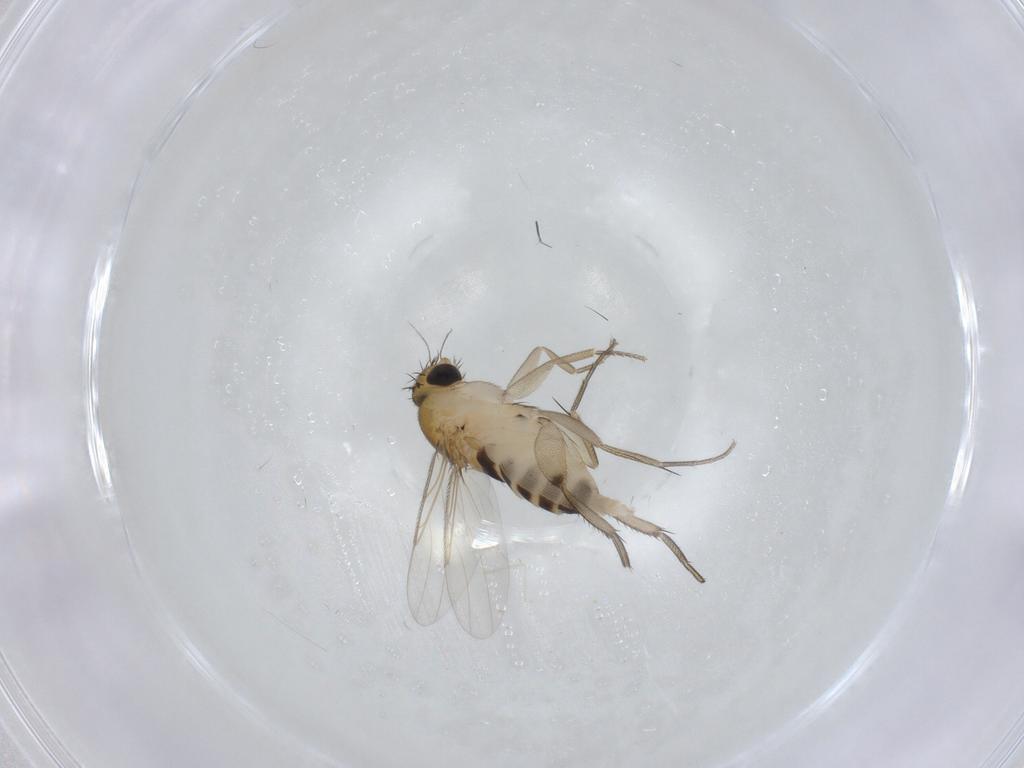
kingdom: Animalia
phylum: Arthropoda
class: Insecta
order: Diptera
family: Cecidomyiidae
